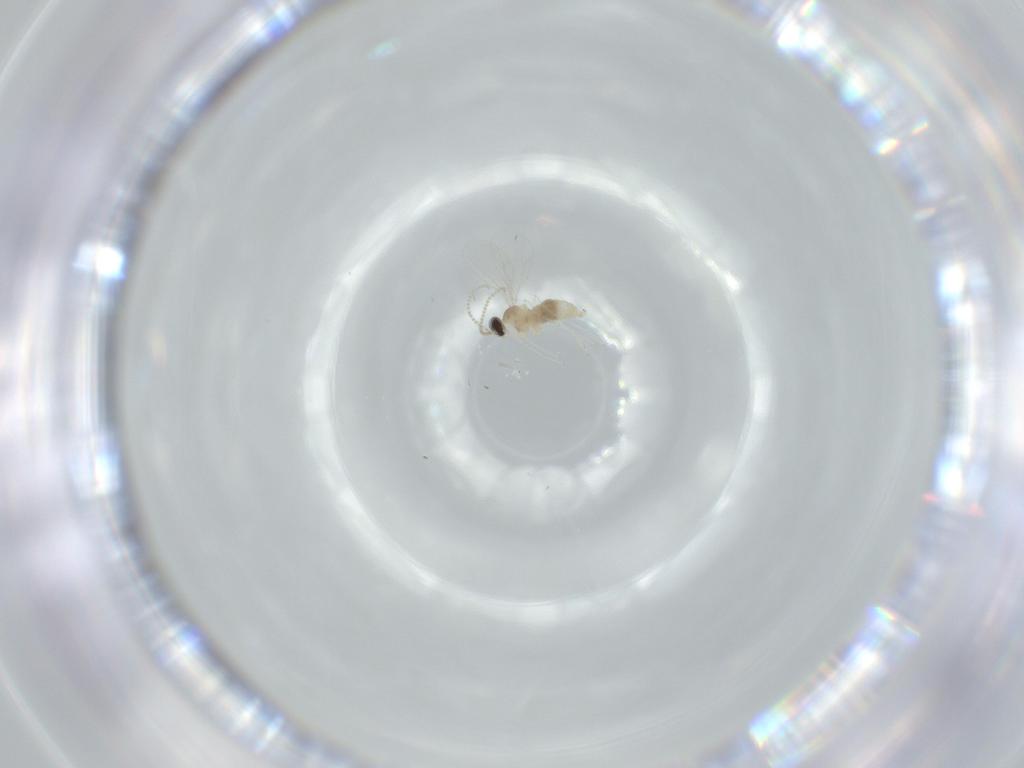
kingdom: Animalia
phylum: Arthropoda
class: Insecta
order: Diptera
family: Cecidomyiidae
